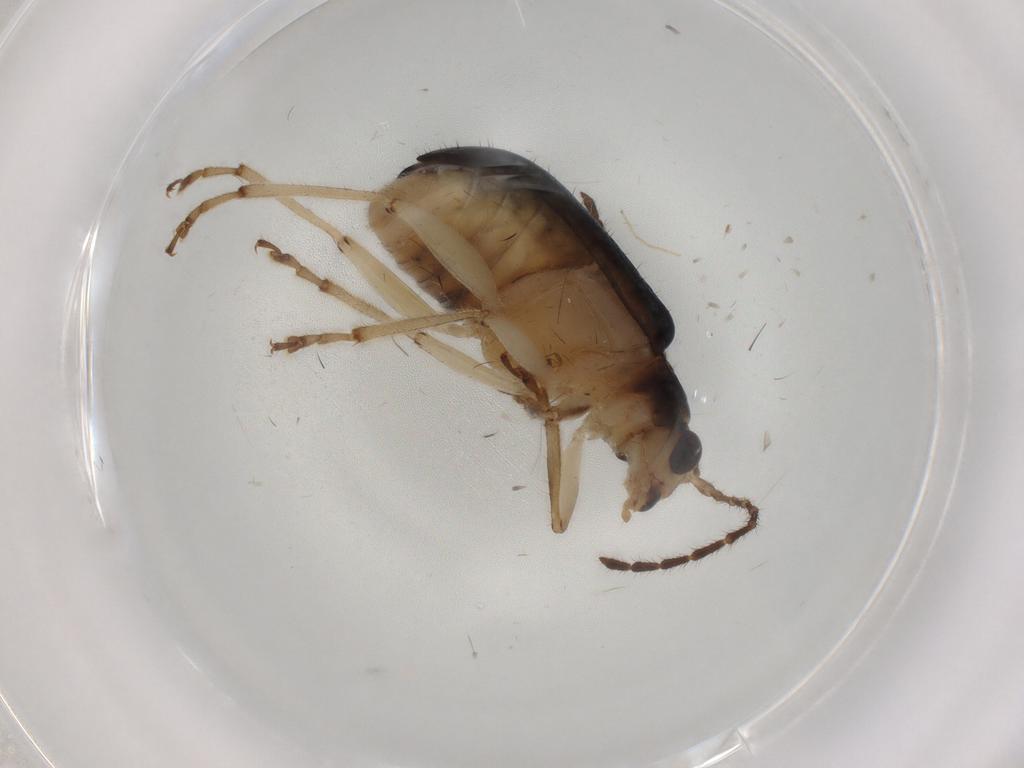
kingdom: Animalia
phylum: Arthropoda
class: Insecta
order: Coleoptera
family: Chrysomelidae
